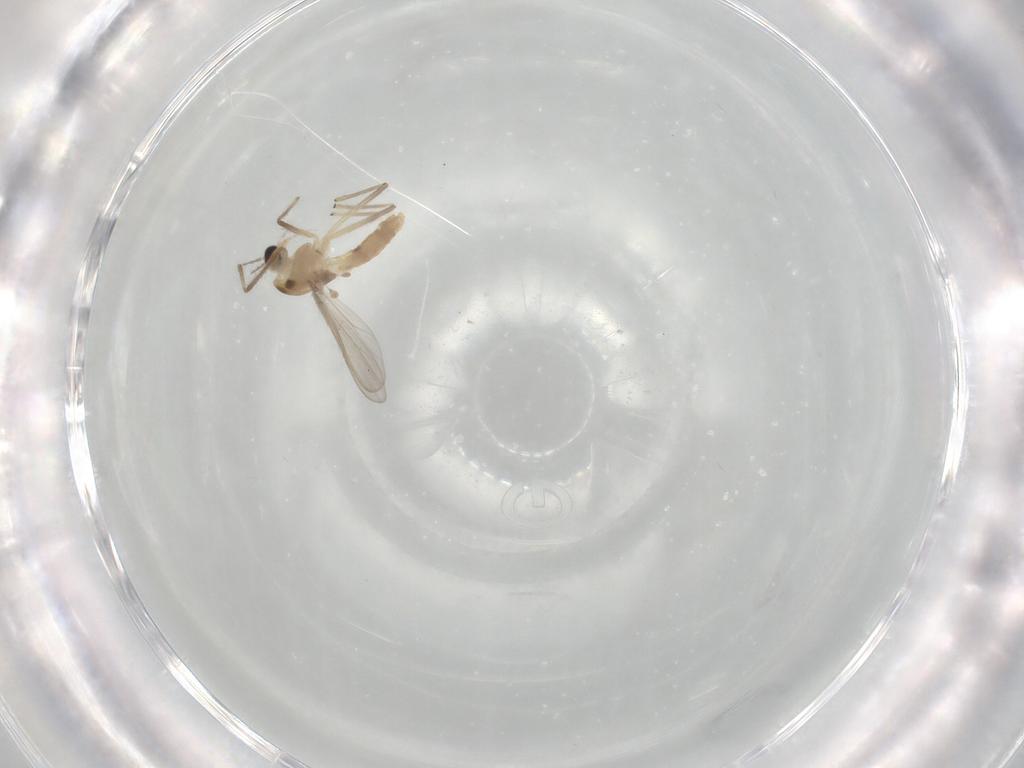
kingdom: Animalia
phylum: Arthropoda
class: Insecta
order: Diptera
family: Chironomidae
